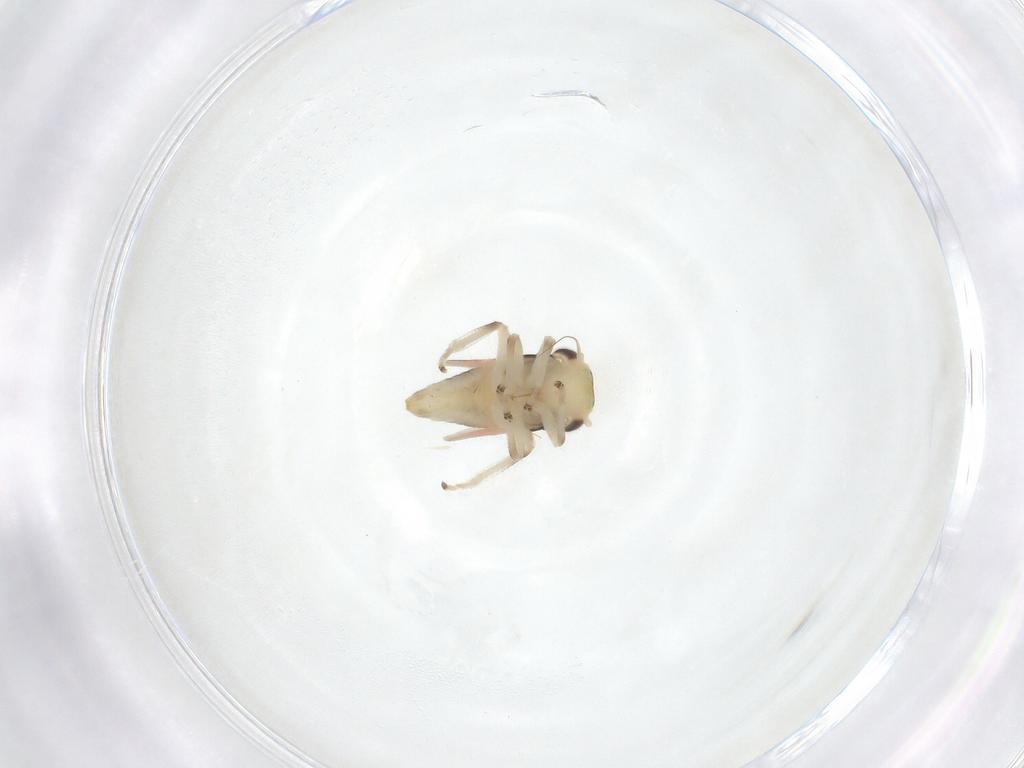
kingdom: Animalia
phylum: Arthropoda
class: Insecta
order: Hemiptera
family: Cicadellidae
